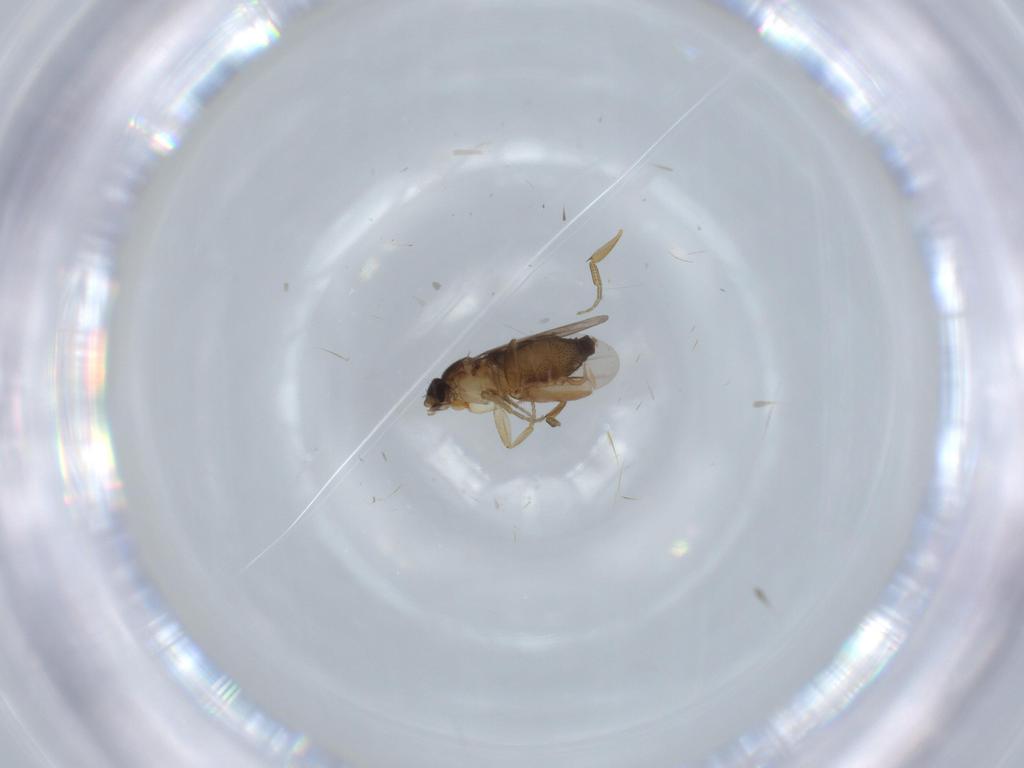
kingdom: Animalia
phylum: Arthropoda
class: Insecta
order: Diptera
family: Phoridae
